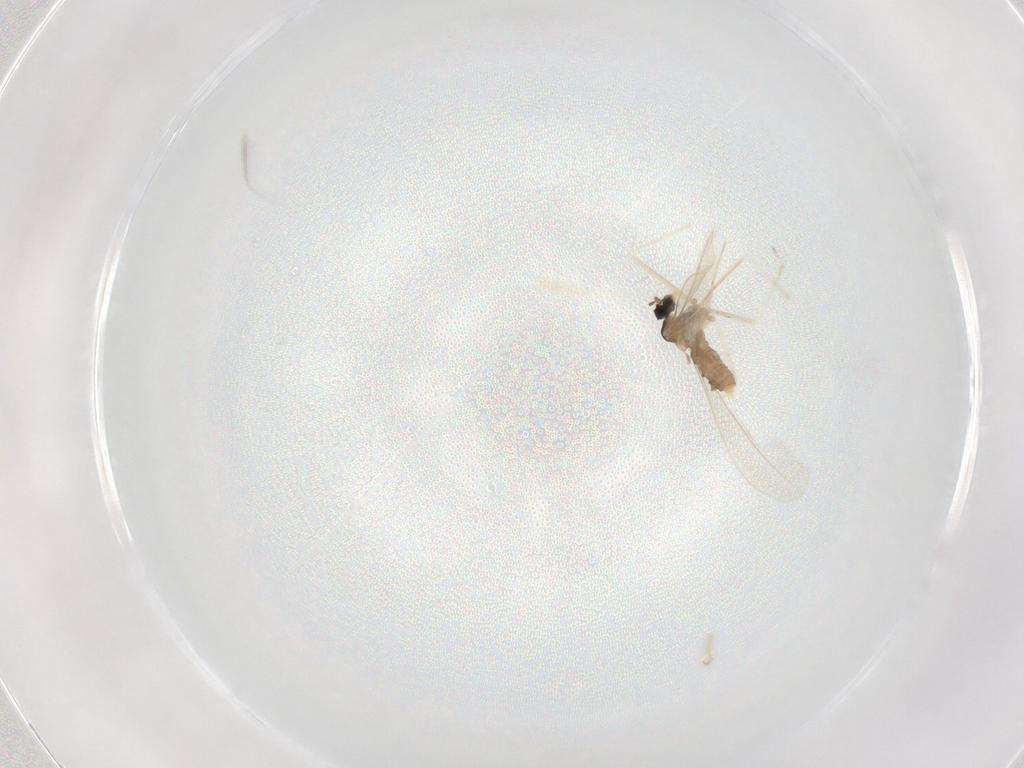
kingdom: Animalia
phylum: Arthropoda
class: Insecta
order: Diptera
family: Cecidomyiidae
